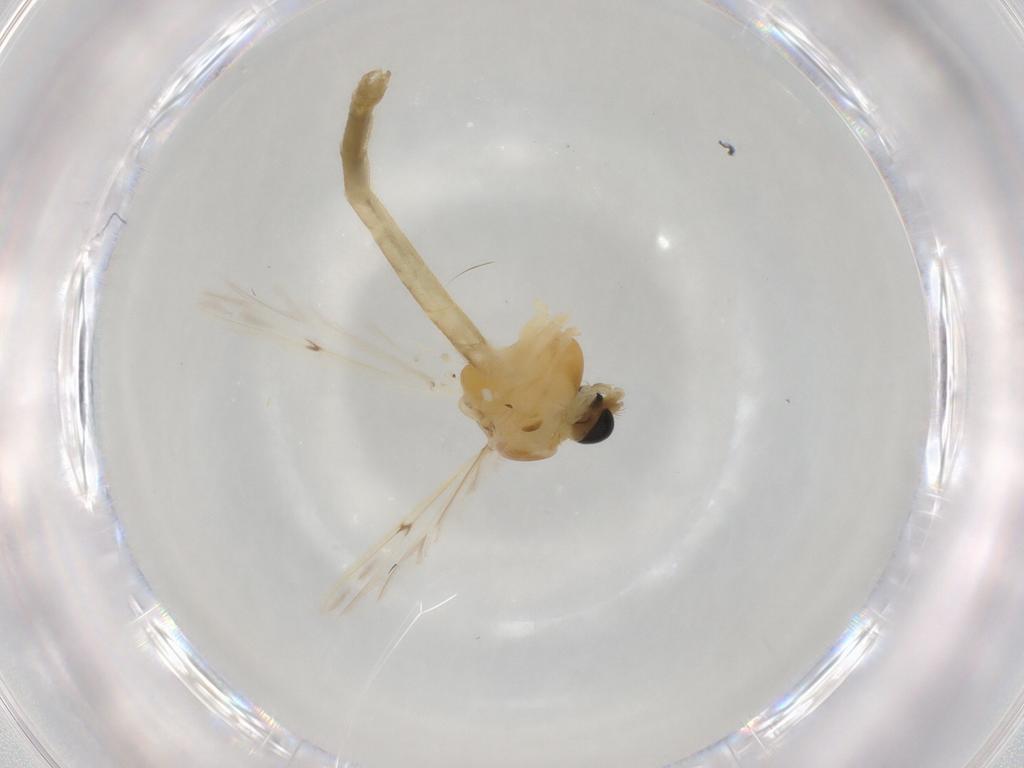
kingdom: Animalia
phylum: Arthropoda
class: Insecta
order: Diptera
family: Chironomidae
